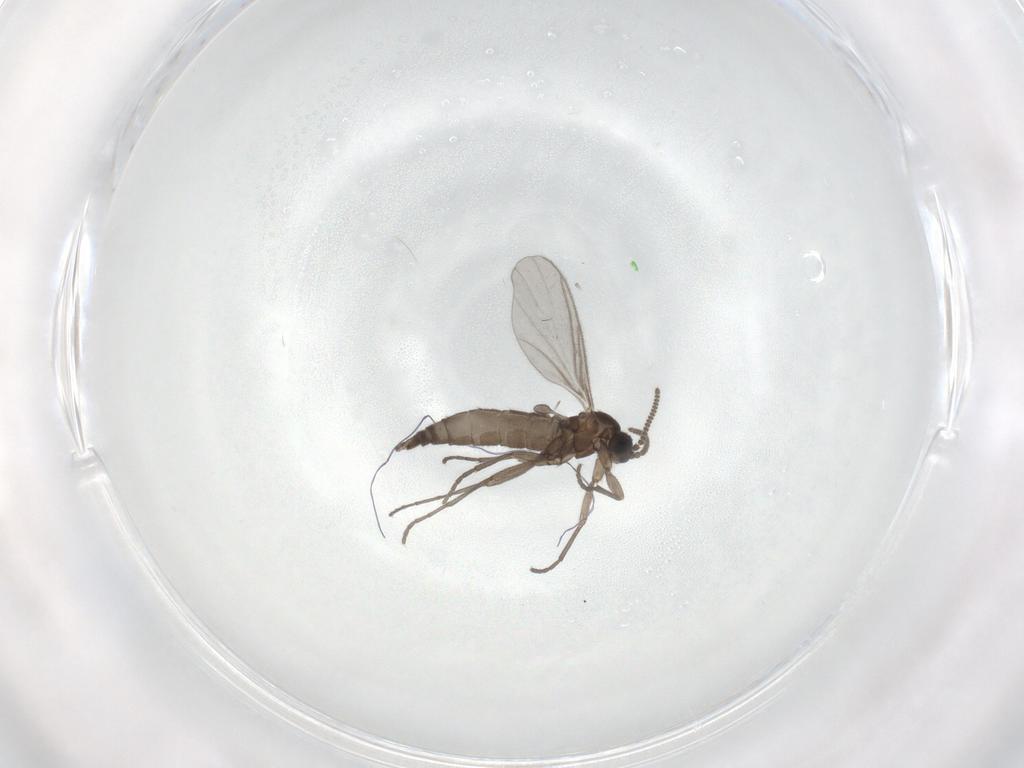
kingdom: Animalia
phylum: Arthropoda
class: Insecta
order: Diptera
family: Sciaridae
